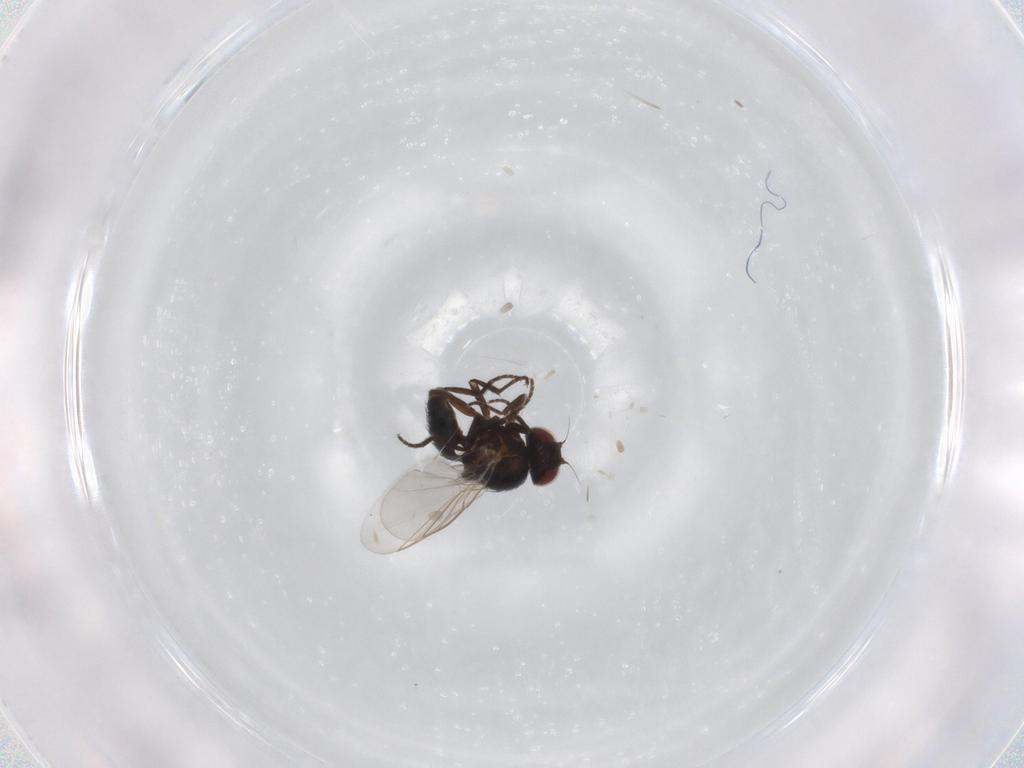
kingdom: Animalia
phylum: Arthropoda
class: Insecta
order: Diptera
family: Agromyzidae
